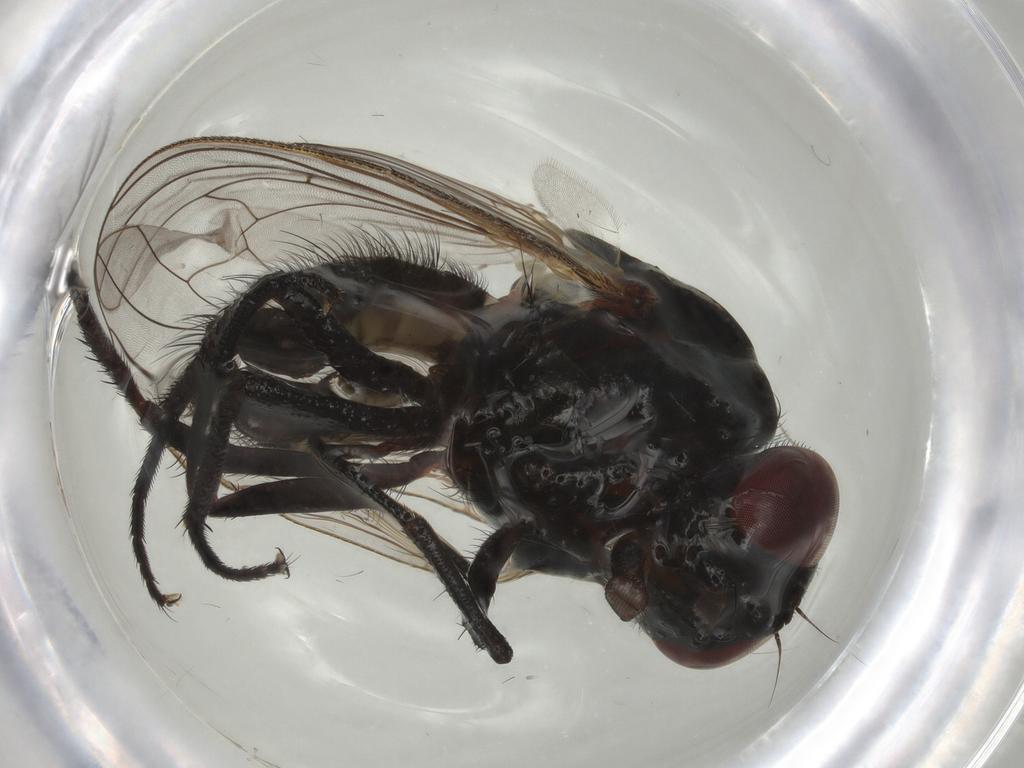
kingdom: Animalia
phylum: Arthropoda
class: Insecta
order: Diptera
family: Anthomyiidae
